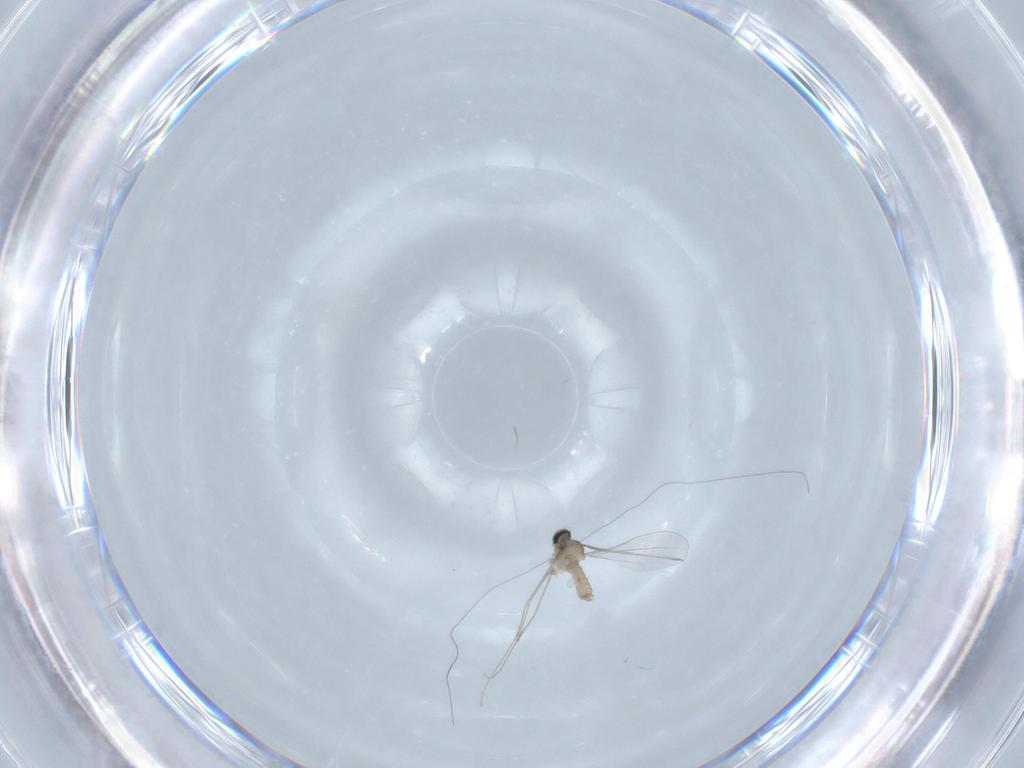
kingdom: Animalia
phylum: Arthropoda
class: Insecta
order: Diptera
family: Cecidomyiidae
